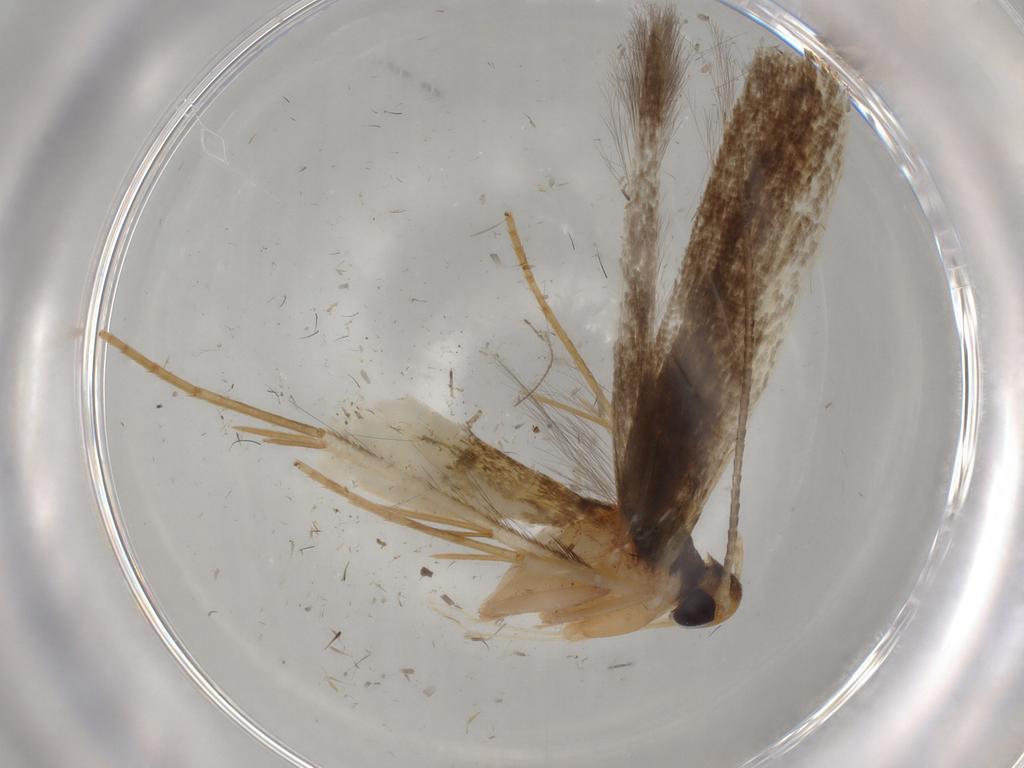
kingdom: Animalia
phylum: Arthropoda
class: Insecta
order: Lepidoptera
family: Pterolonchidae
